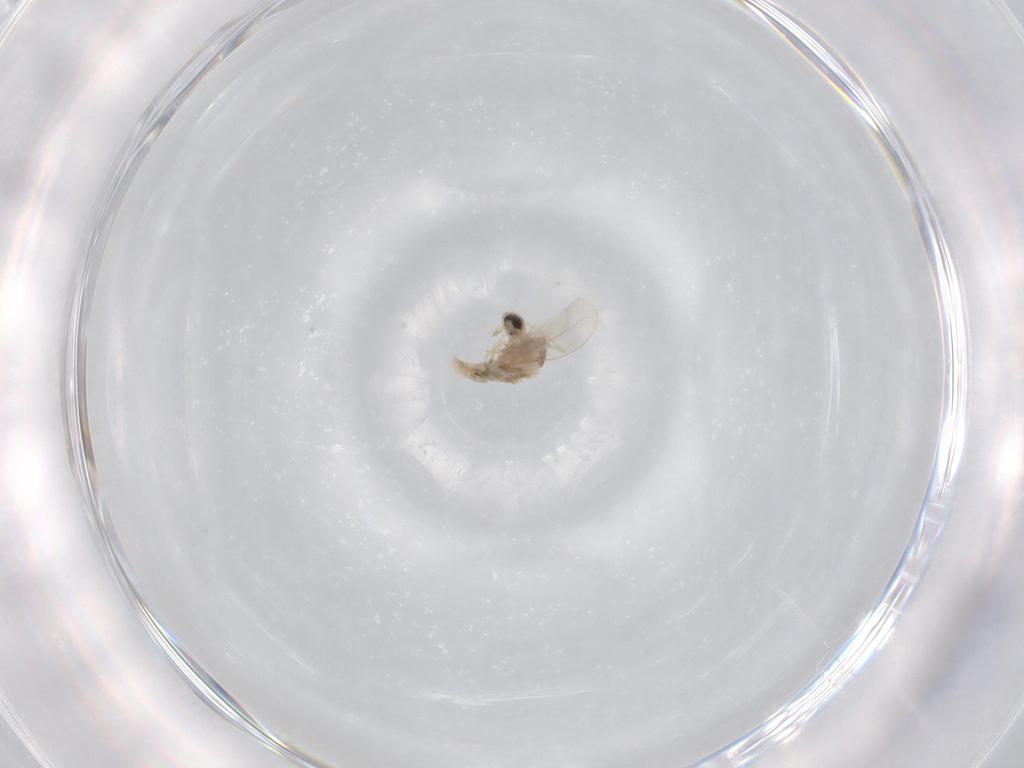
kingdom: Animalia
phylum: Arthropoda
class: Insecta
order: Diptera
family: Cecidomyiidae
